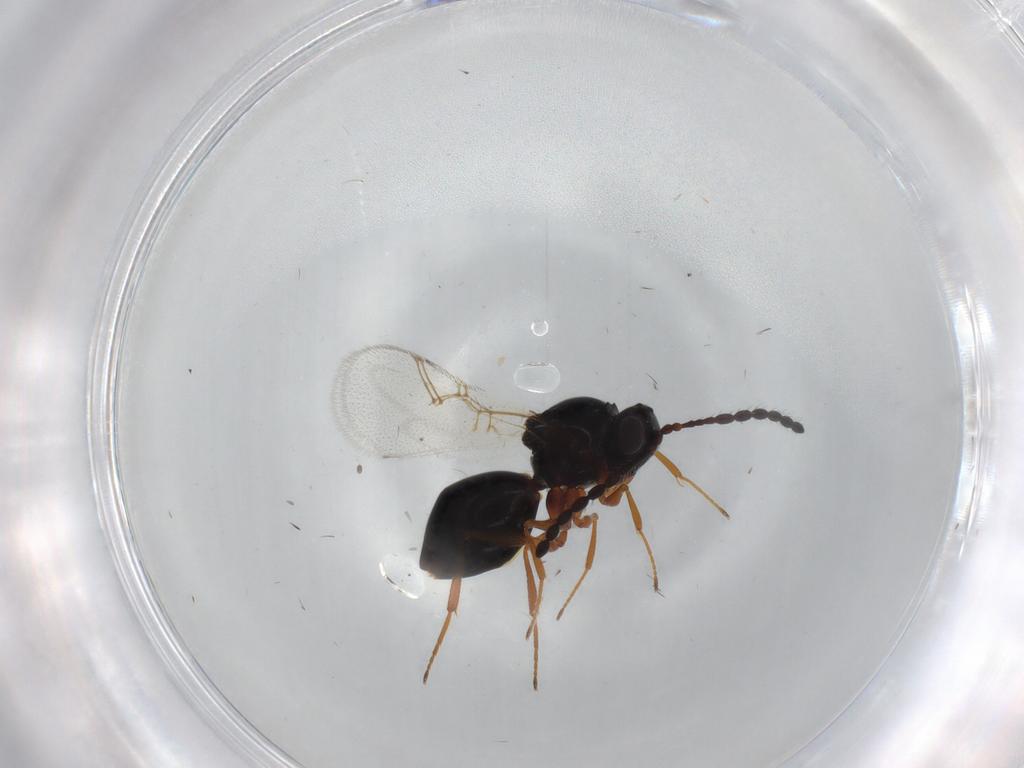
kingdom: Animalia
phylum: Arthropoda
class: Insecta
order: Hymenoptera
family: Figitidae
